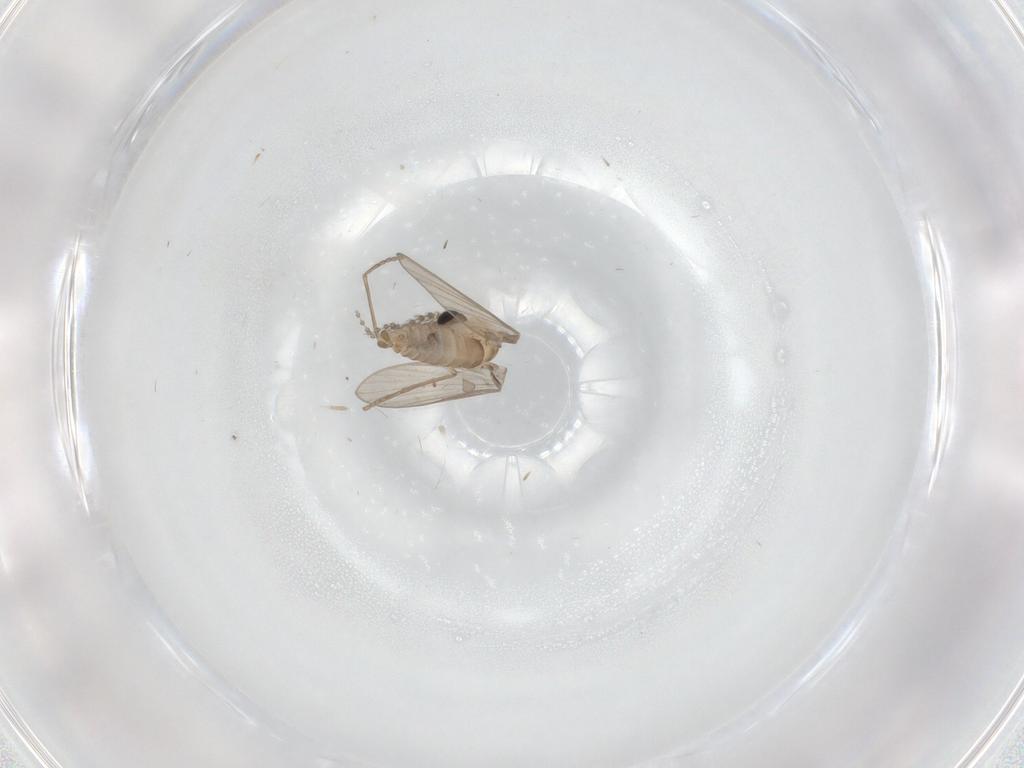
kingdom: Animalia
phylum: Arthropoda
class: Insecta
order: Diptera
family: Psychodidae
